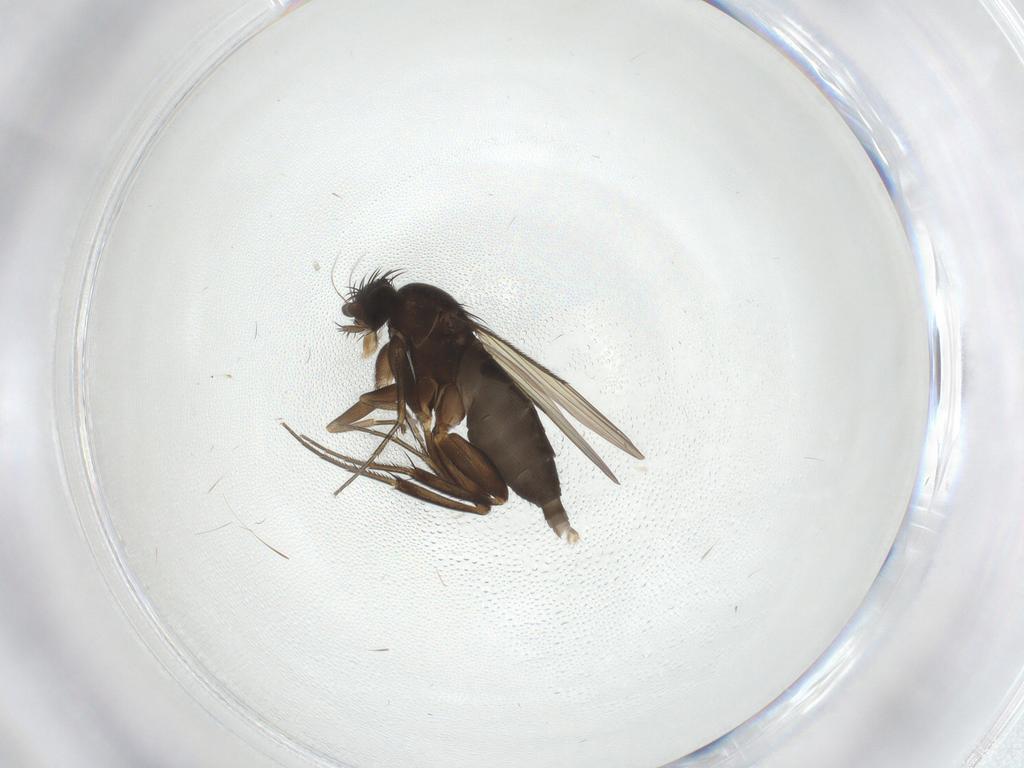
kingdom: Animalia
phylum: Arthropoda
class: Insecta
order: Diptera
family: Phoridae
